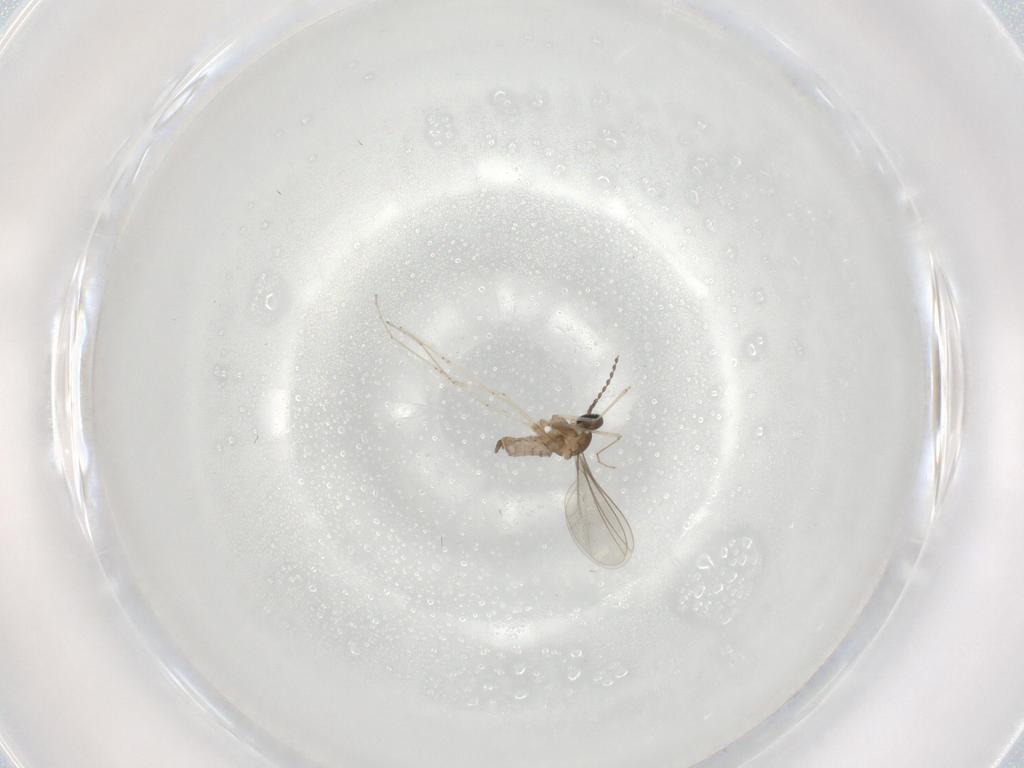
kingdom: Animalia
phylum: Arthropoda
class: Insecta
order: Diptera
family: Cecidomyiidae
